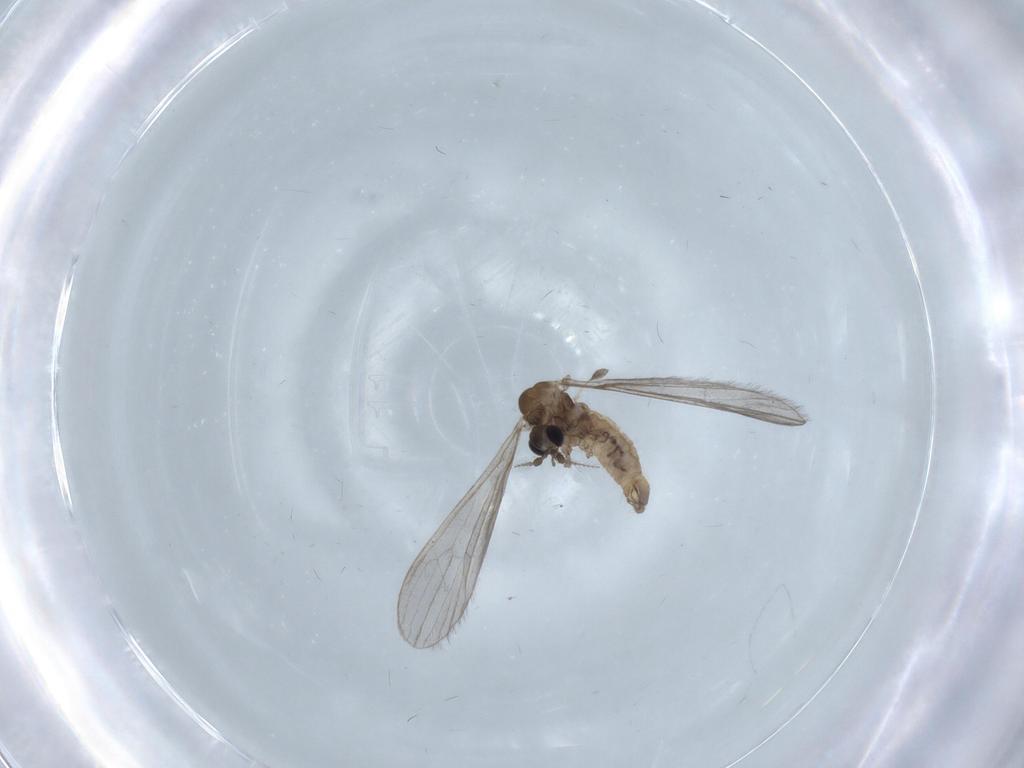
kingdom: Animalia
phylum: Arthropoda
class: Insecta
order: Diptera
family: Limoniidae
